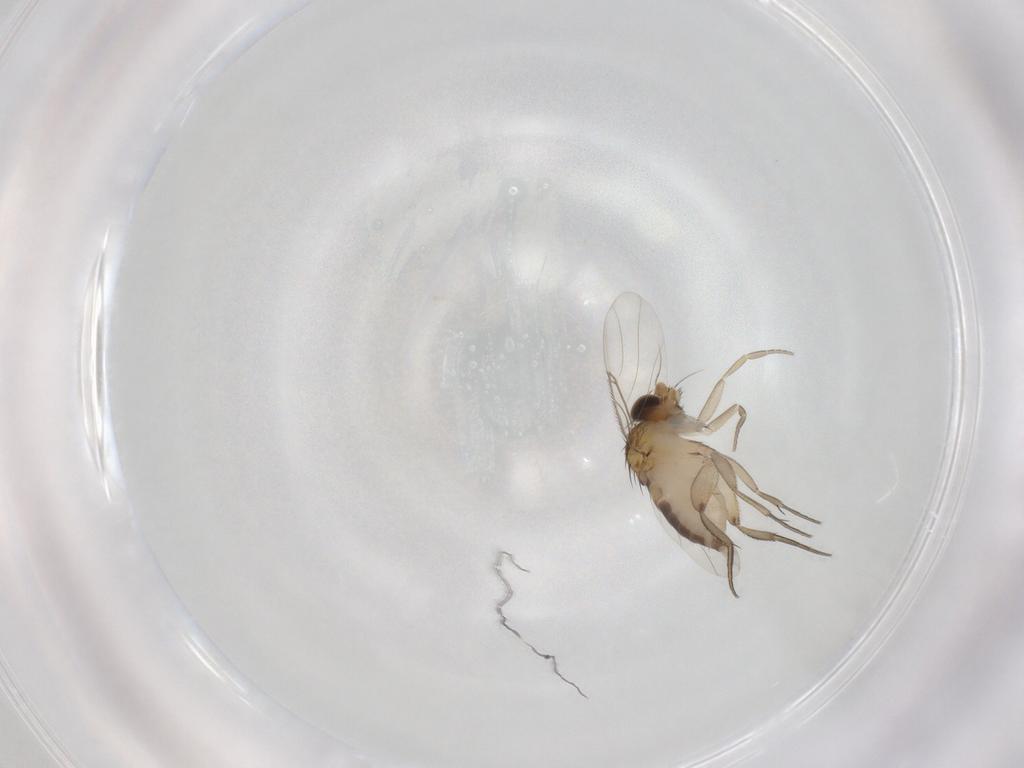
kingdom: Animalia
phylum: Arthropoda
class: Insecta
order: Diptera
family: Phoridae
